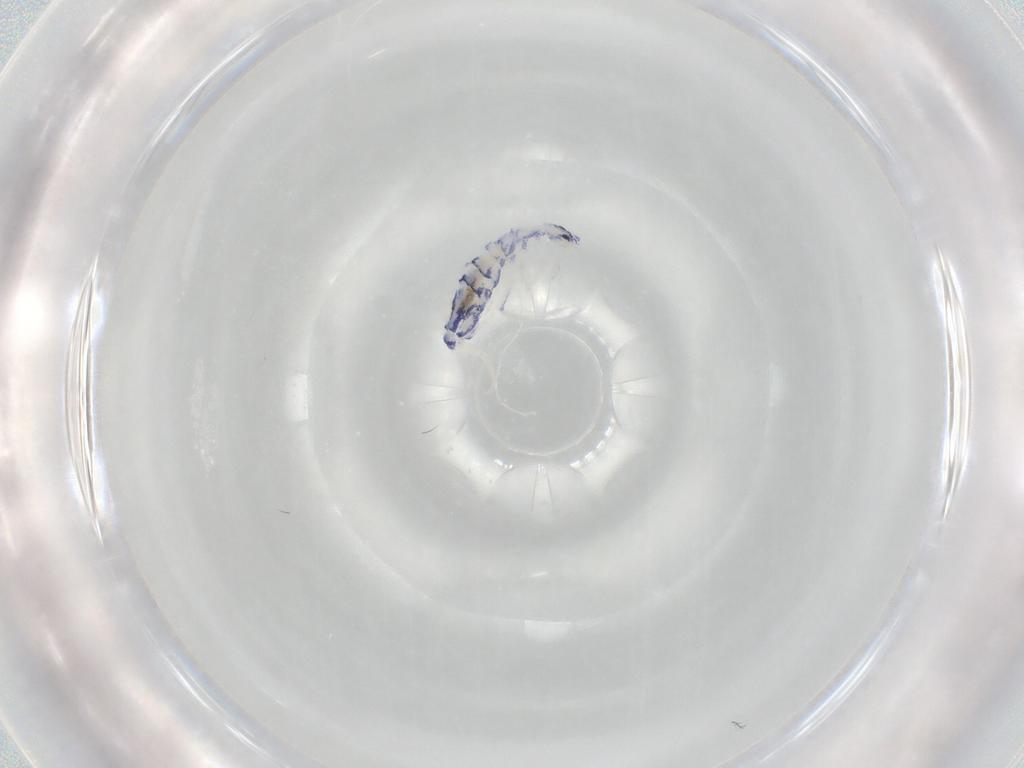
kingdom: Animalia
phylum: Arthropoda
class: Collembola
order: Entomobryomorpha
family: Entomobryidae
